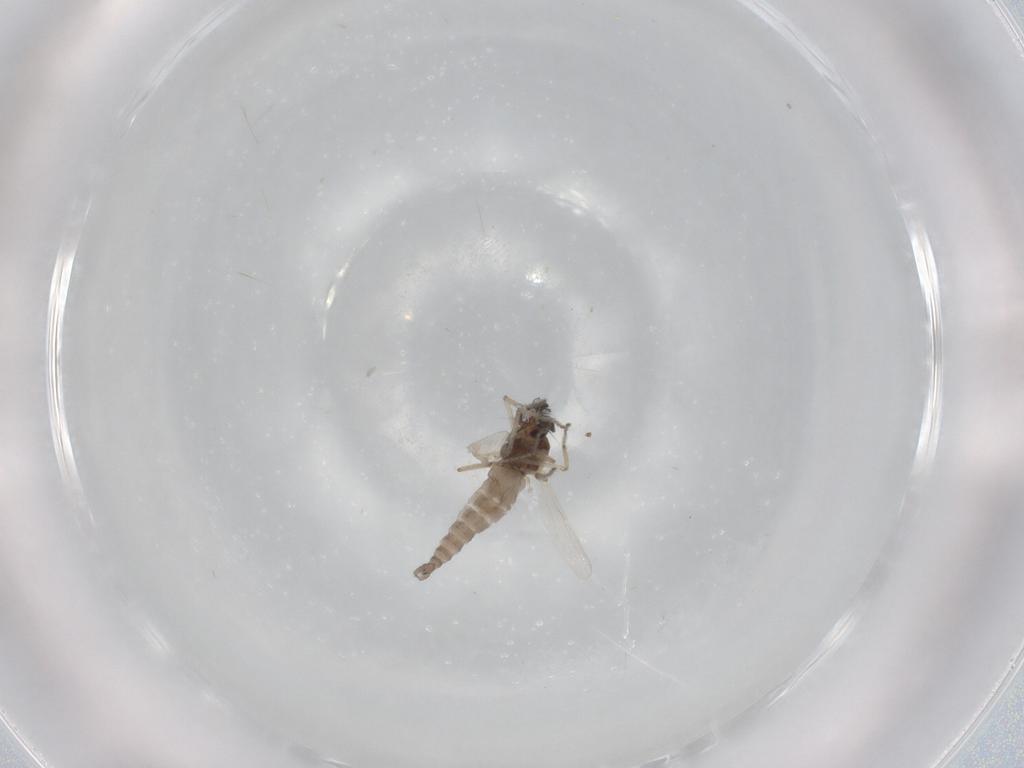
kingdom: Animalia
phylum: Arthropoda
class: Insecta
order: Diptera
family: Ceratopogonidae
